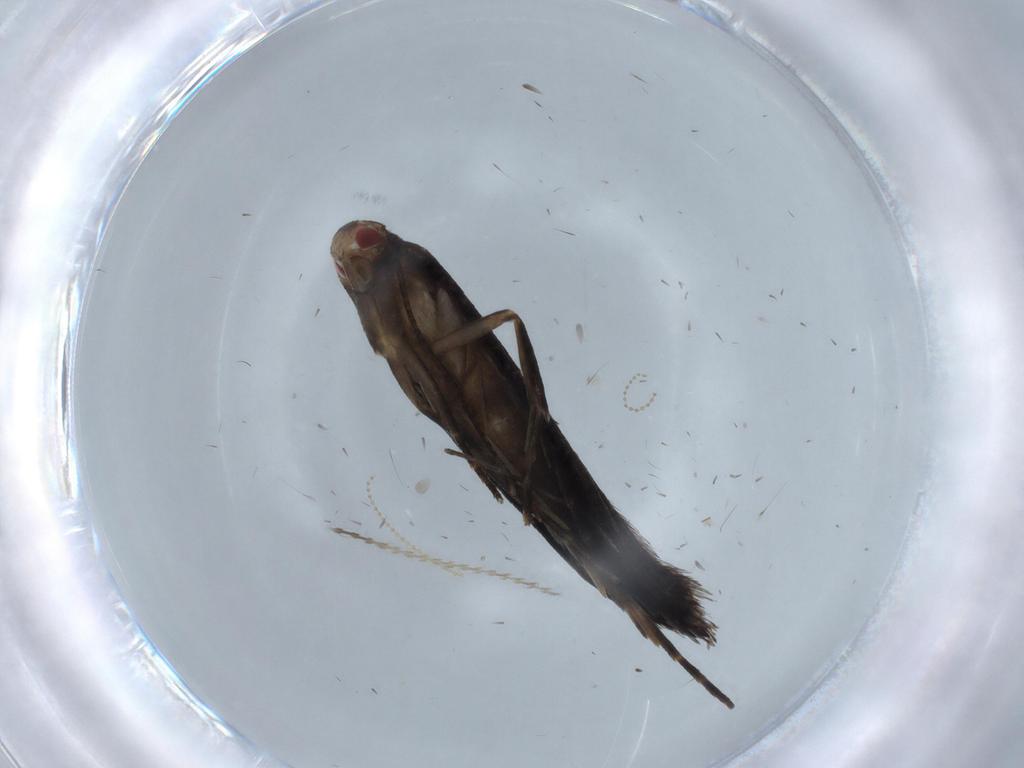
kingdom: Animalia
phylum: Arthropoda
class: Insecta
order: Lepidoptera
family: Gelechiidae
